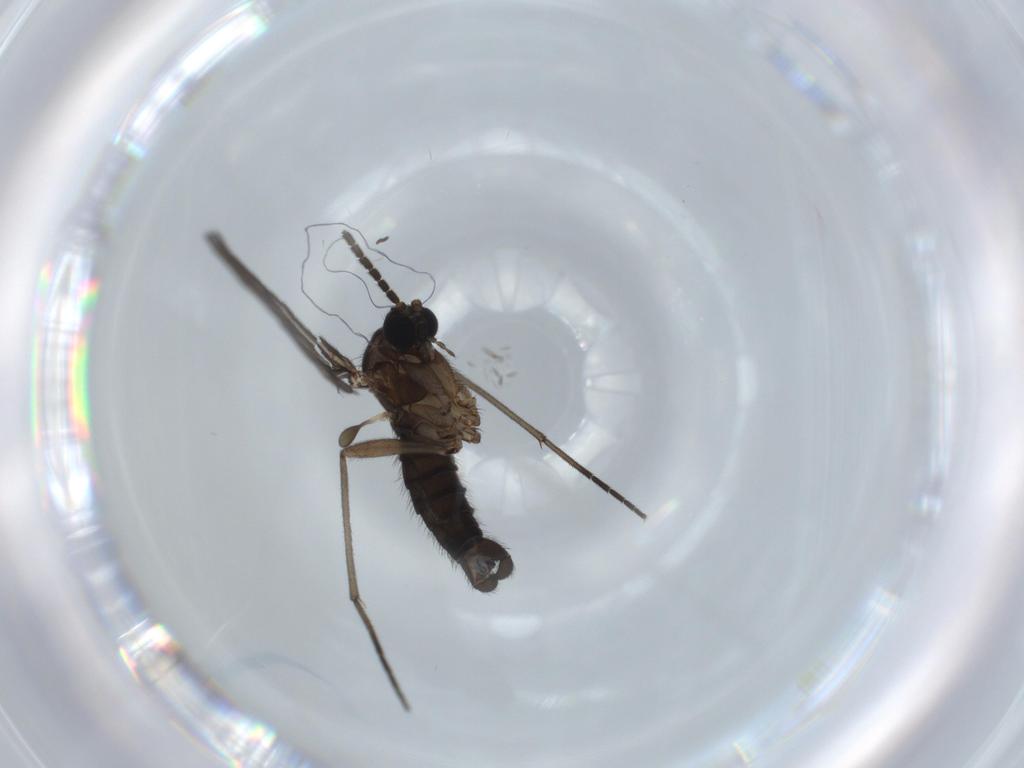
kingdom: Animalia
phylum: Arthropoda
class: Insecta
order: Diptera
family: Sciaridae
